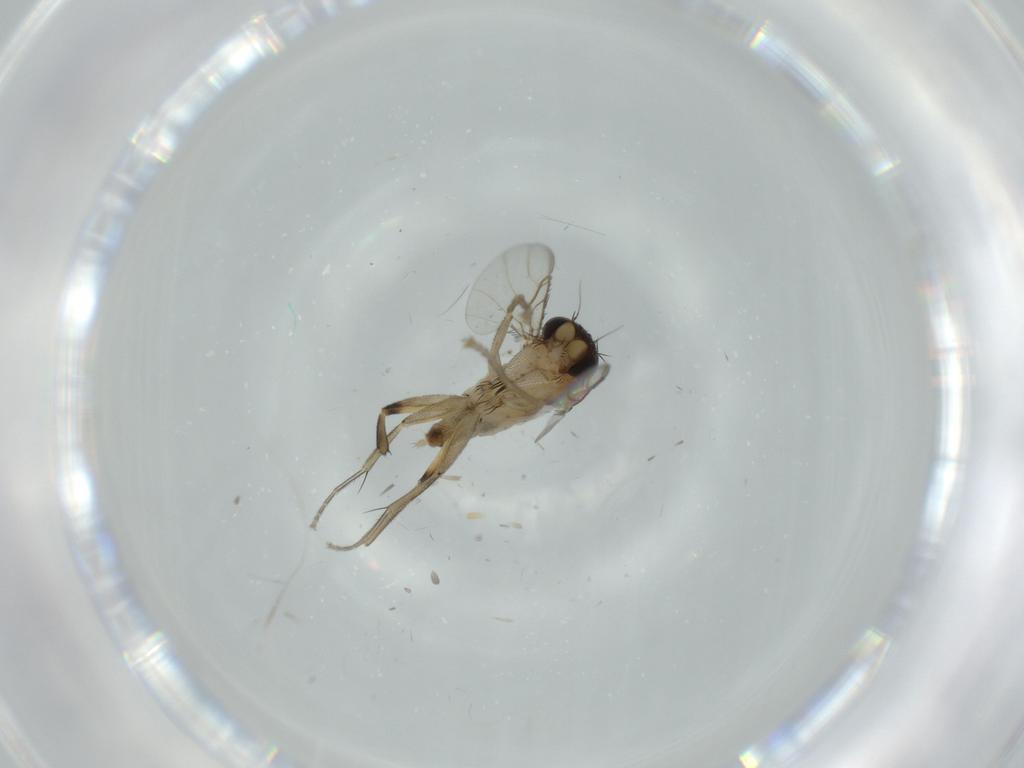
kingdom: Animalia
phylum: Arthropoda
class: Insecta
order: Diptera
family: Phoridae
